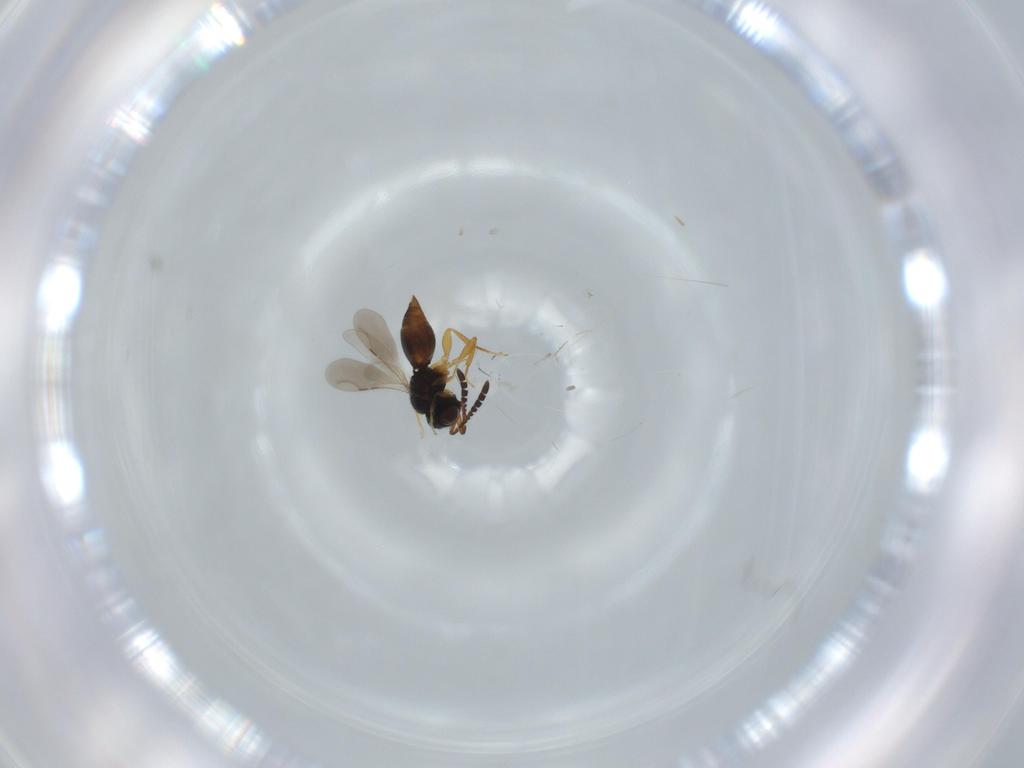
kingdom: Animalia
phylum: Arthropoda
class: Insecta
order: Hymenoptera
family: Ceraphronidae
